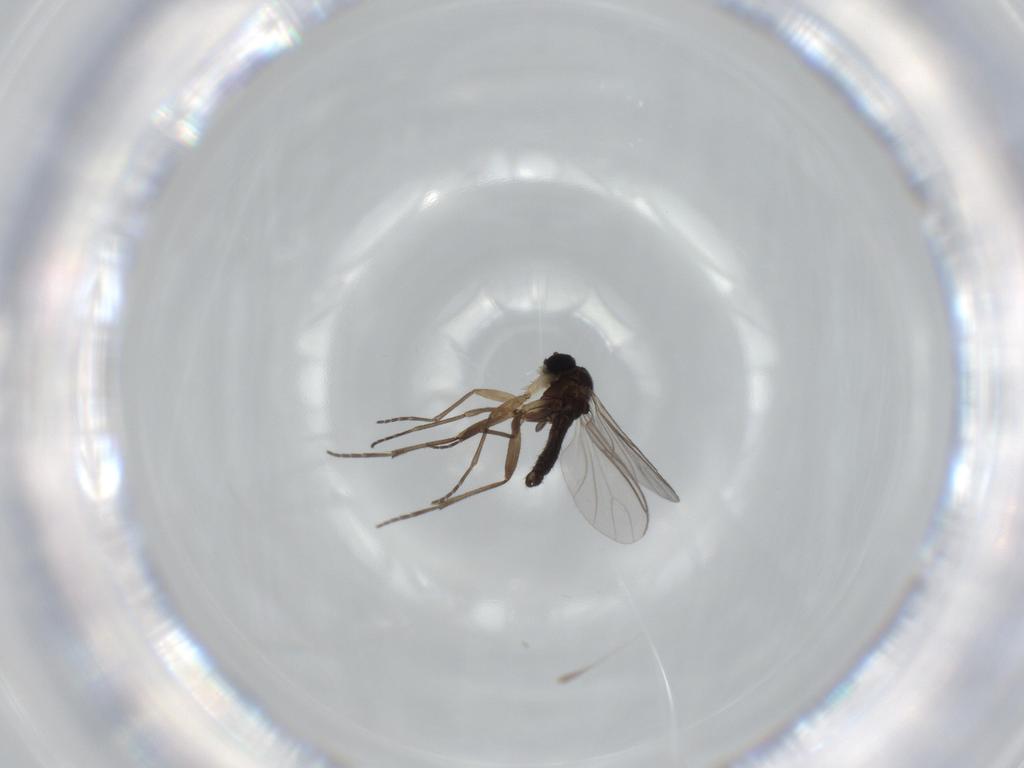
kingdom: Animalia
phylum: Arthropoda
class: Insecta
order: Diptera
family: Sciaridae
